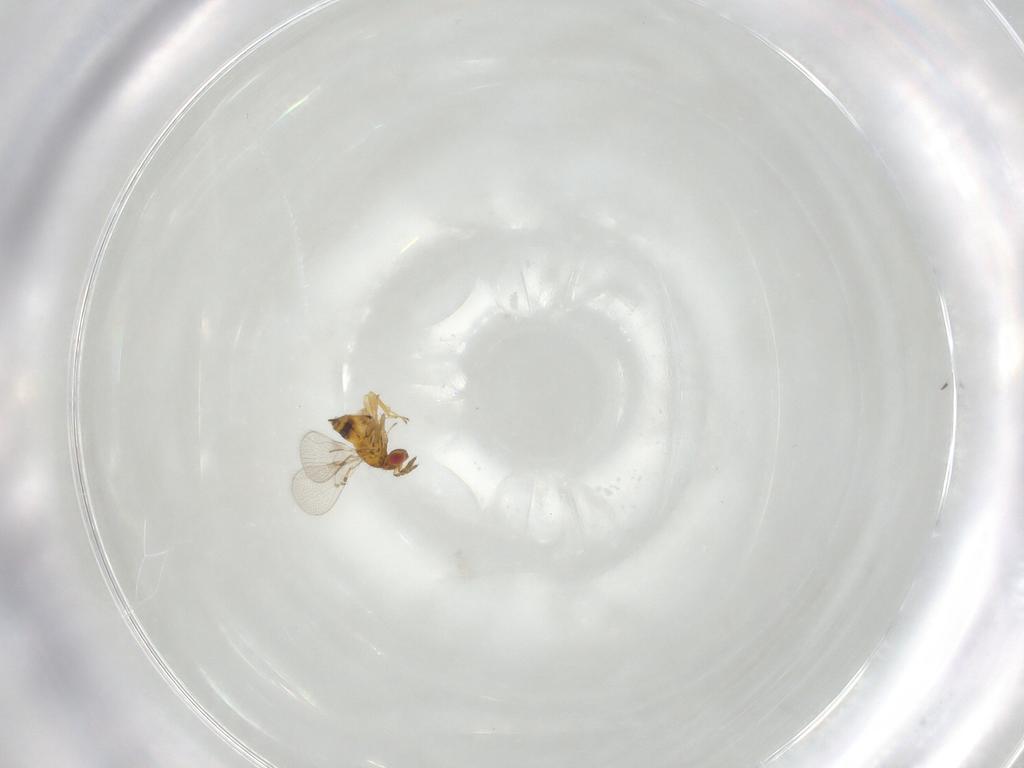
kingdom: Animalia
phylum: Arthropoda
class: Insecta
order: Hymenoptera
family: Trichogrammatidae
